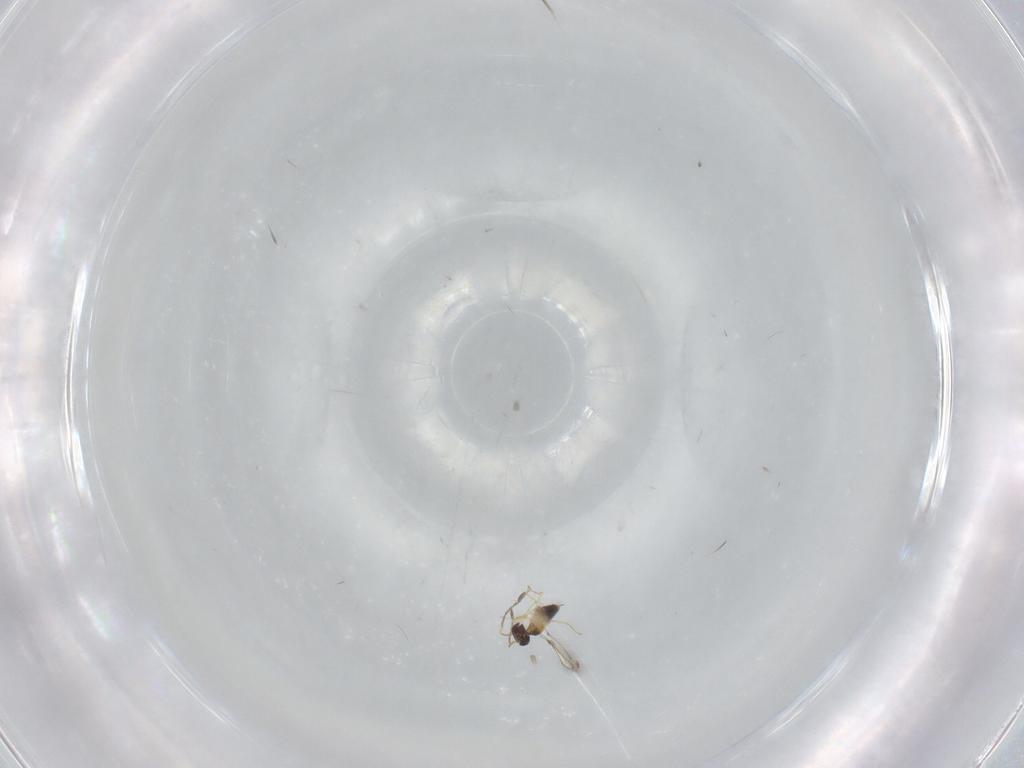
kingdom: Animalia
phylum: Arthropoda
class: Insecta
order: Hymenoptera
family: Mymaridae
